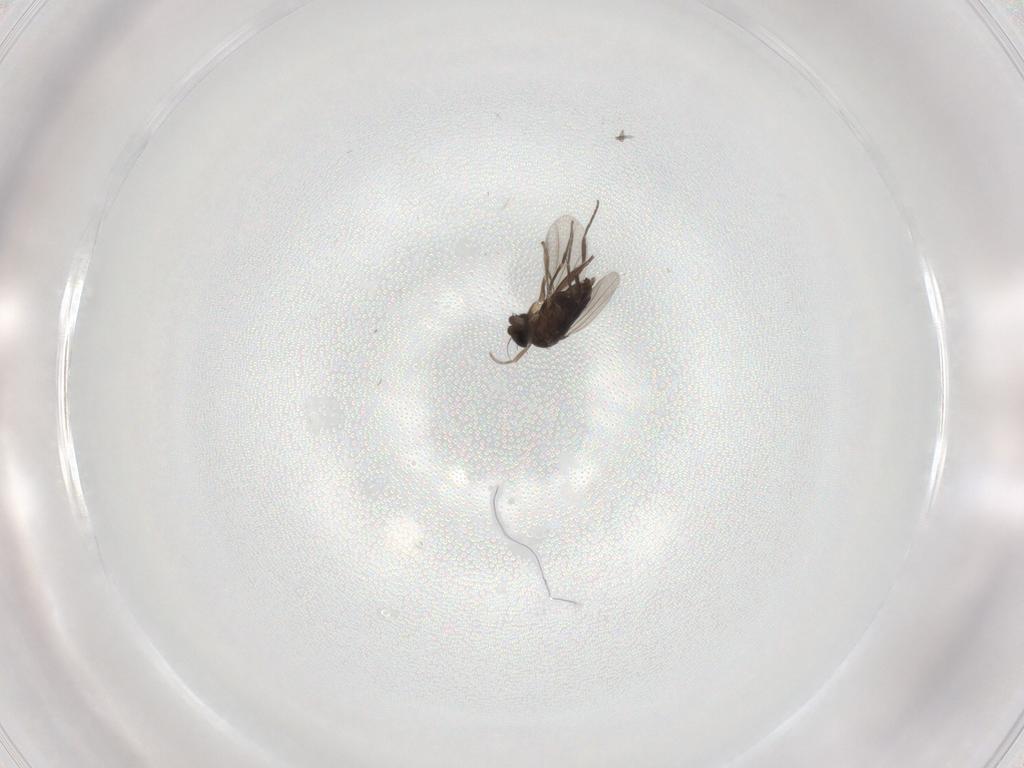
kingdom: Animalia
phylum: Arthropoda
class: Insecta
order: Diptera
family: Phoridae
